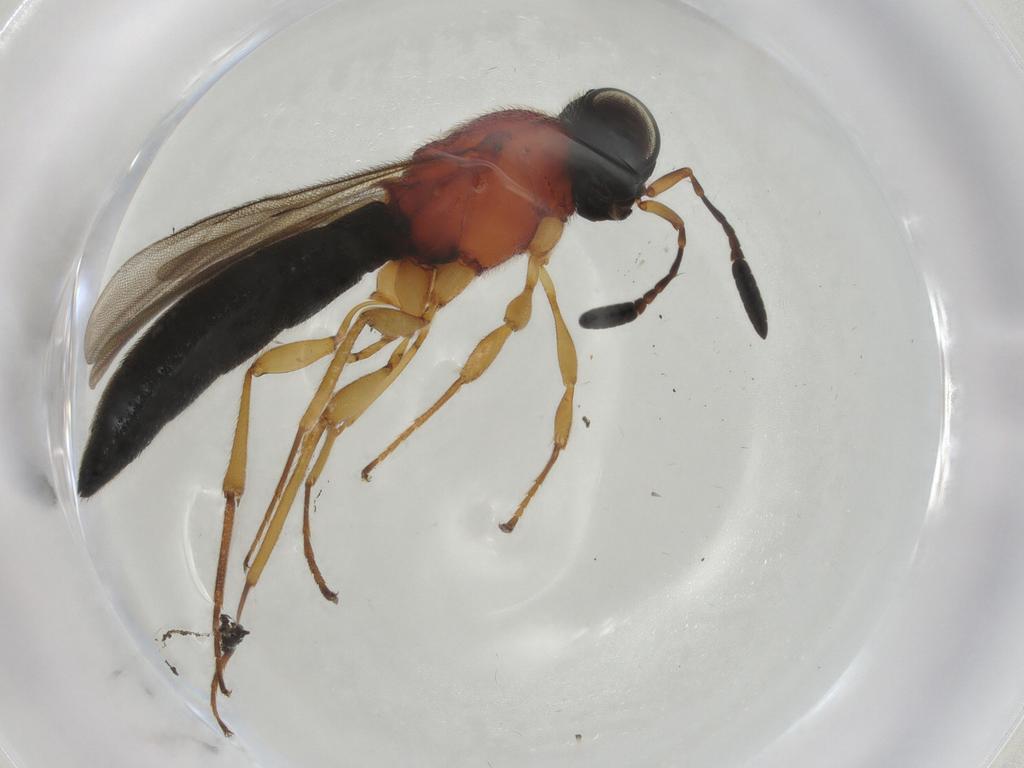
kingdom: Animalia
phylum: Arthropoda
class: Insecta
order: Hymenoptera
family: Scelionidae
